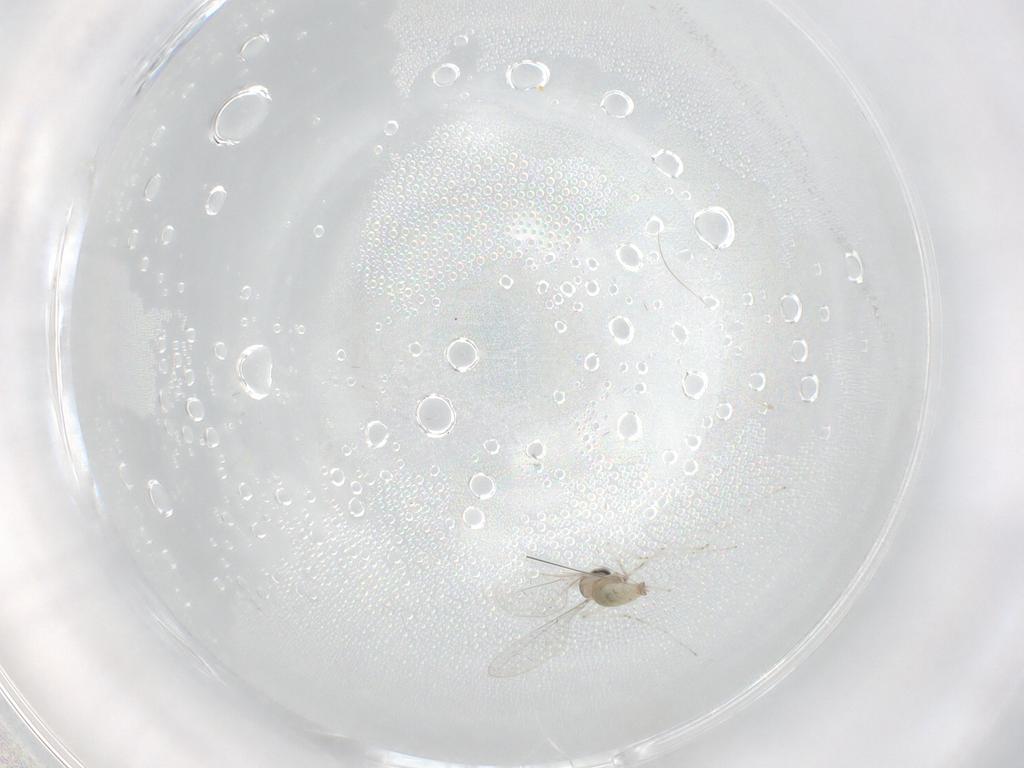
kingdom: Animalia
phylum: Arthropoda
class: Insecta
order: Diptera
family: Cecidomyiidae
